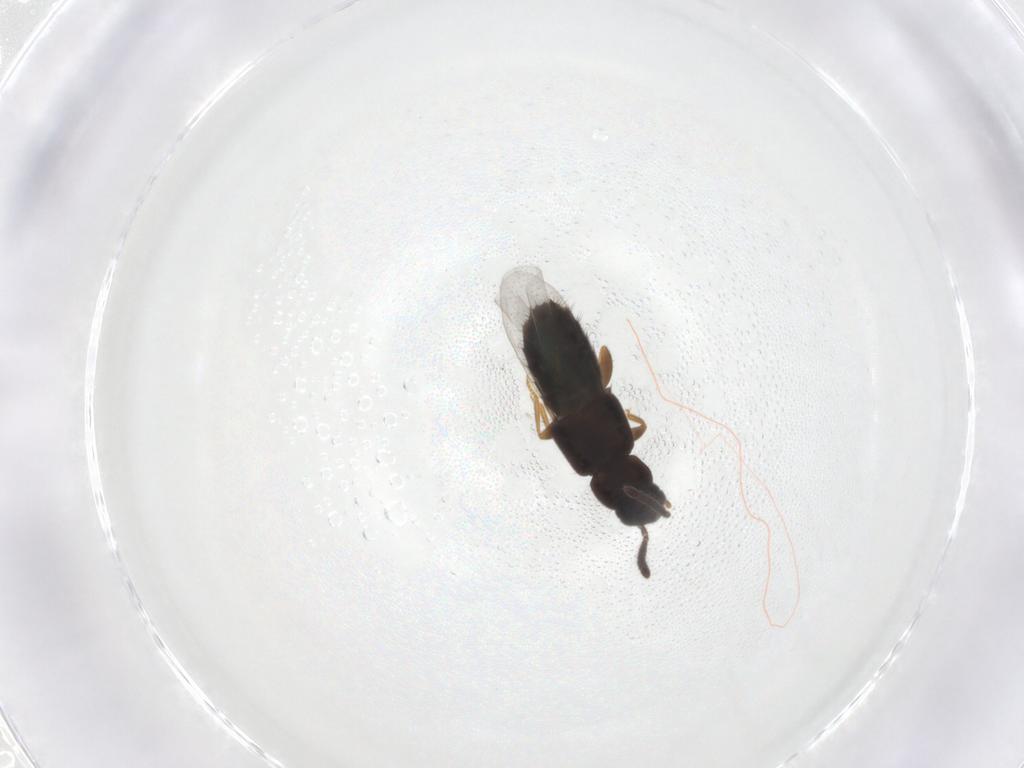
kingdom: Animalia
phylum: Arthropoda
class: Insecta
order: Coleoptera
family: Staphylinidae
